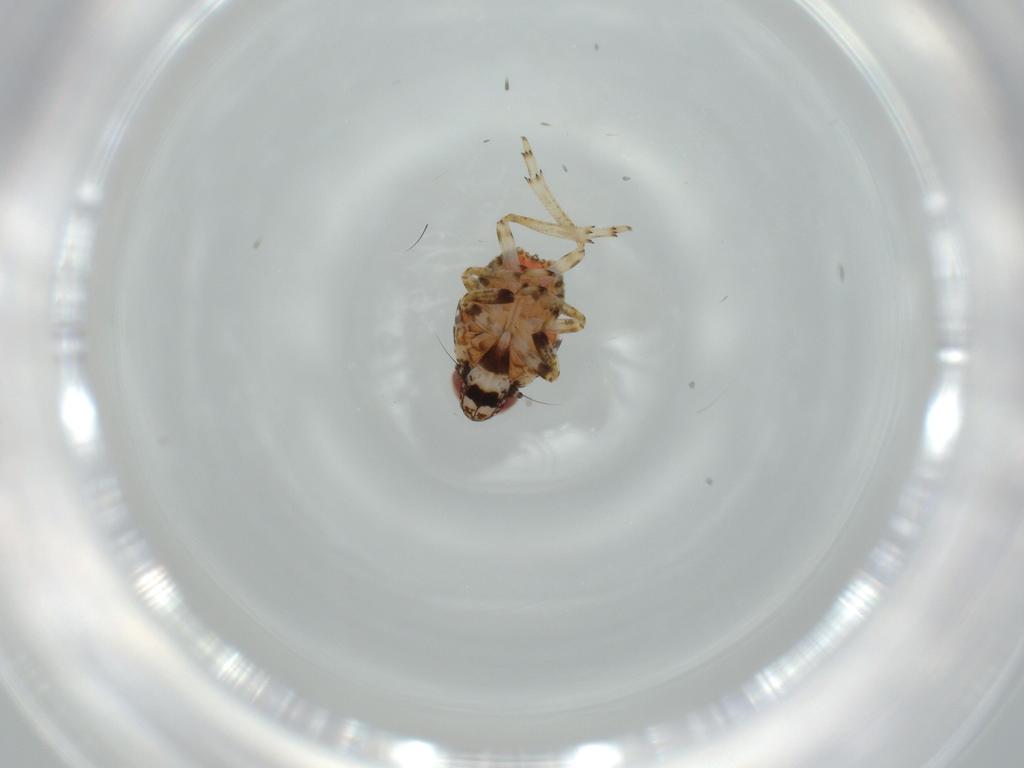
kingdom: Animalia
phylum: Arthropoda
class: Insecta
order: Hemiptera
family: Issidae
